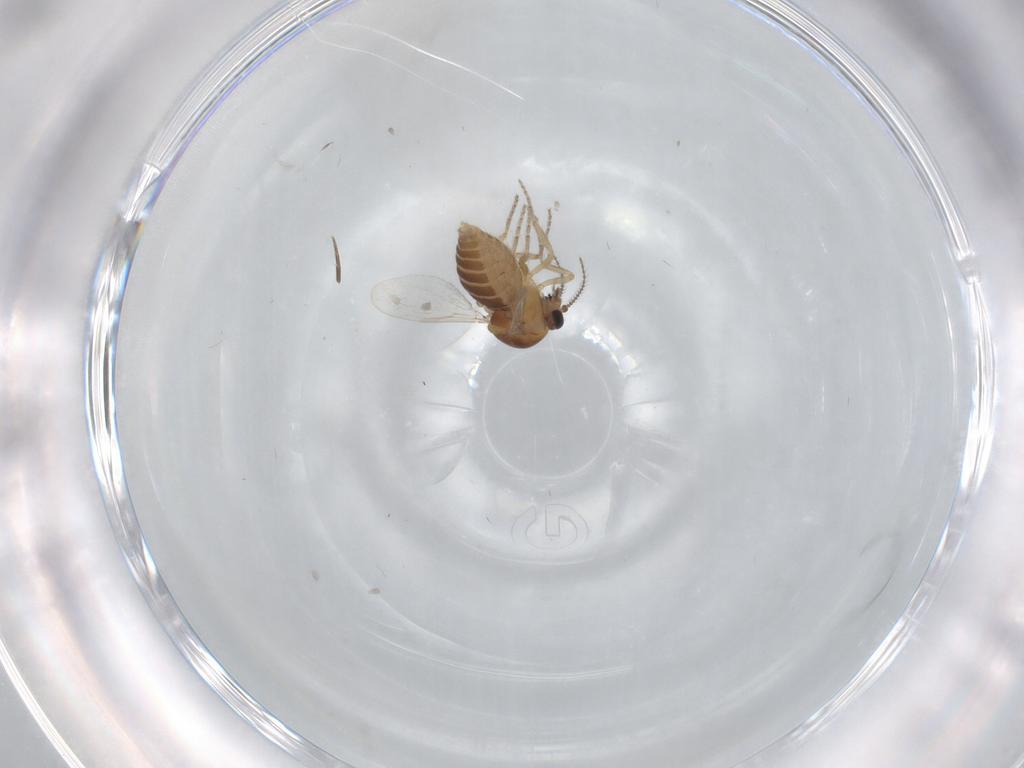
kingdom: Animalia
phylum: Arthropoda
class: Insecta
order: Diptera
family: Ceratopogonidae
